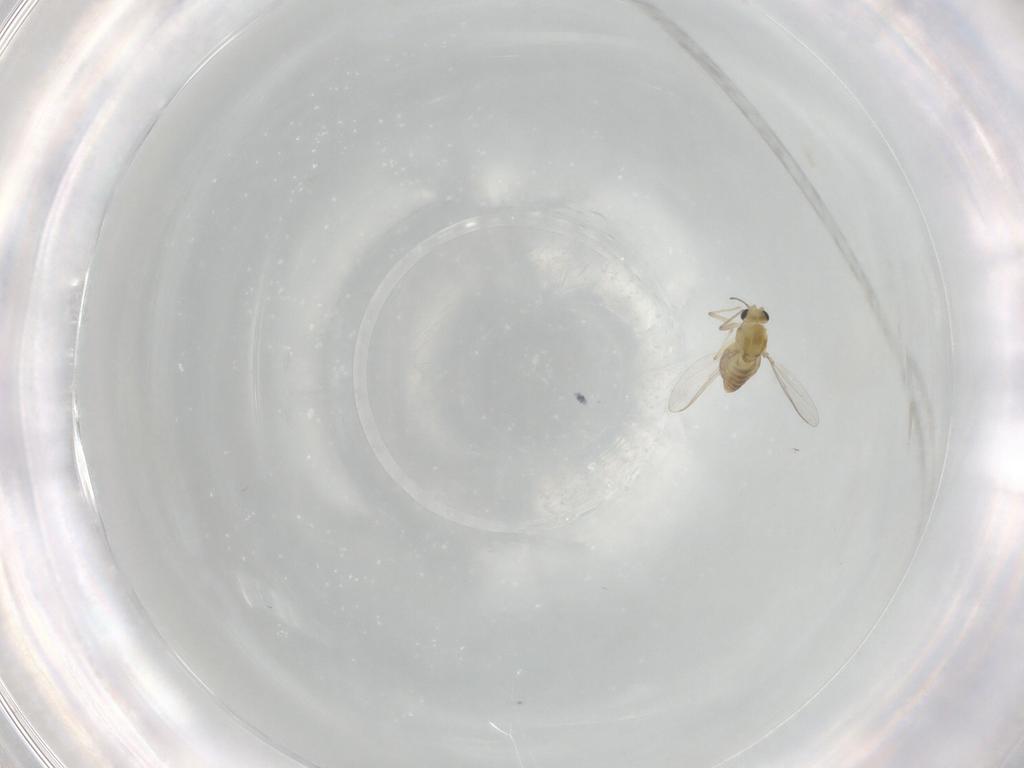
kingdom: Animalia
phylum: Arthropoda
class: Insecta
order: Diptera
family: Chironomidae
